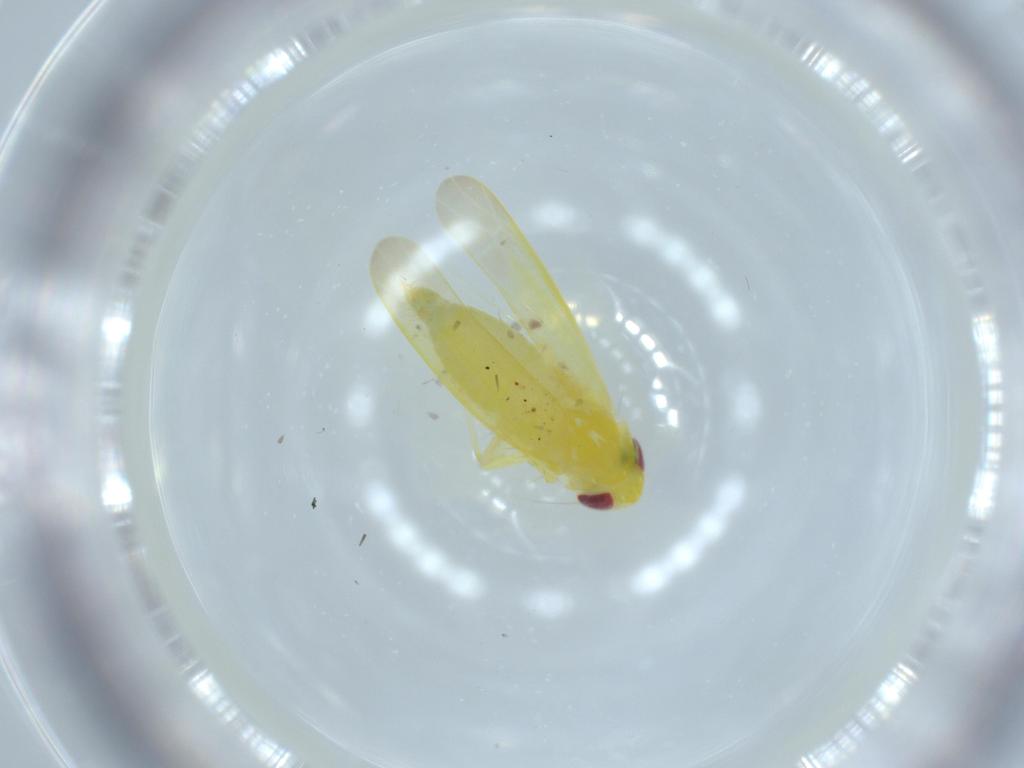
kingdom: Animalia
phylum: Arthropoda
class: Insecta
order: Hemiptera
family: Cicadellidae
